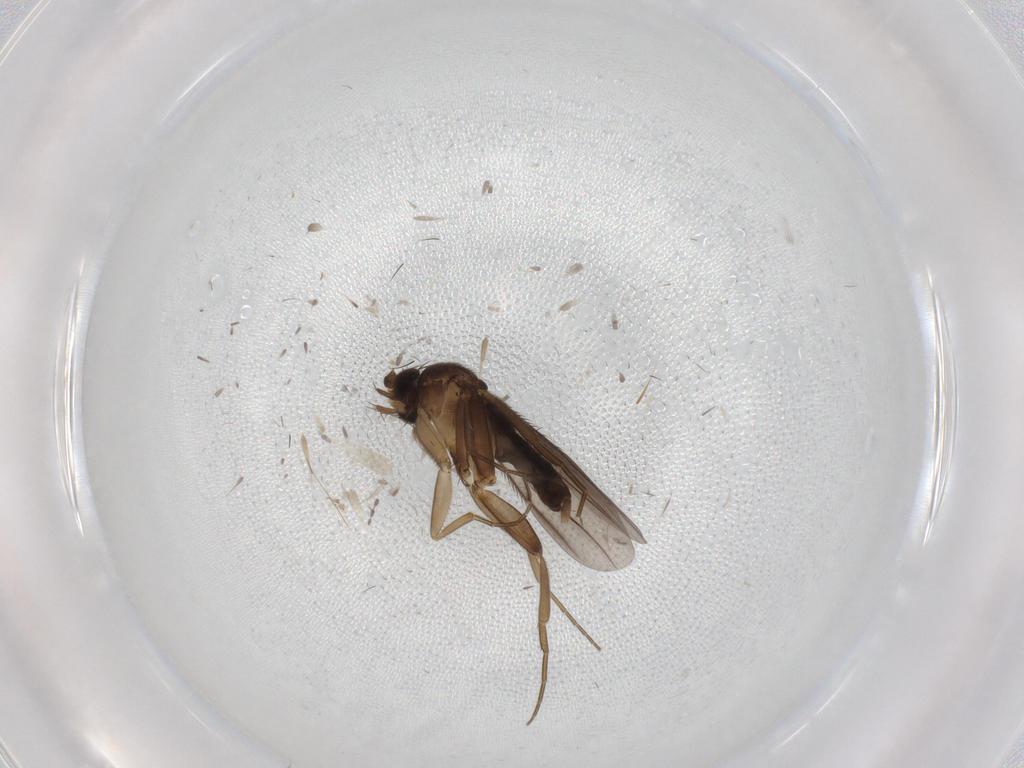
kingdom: Animalia
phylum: Arthropoda
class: Insecta
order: Diptera
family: Phoridae
